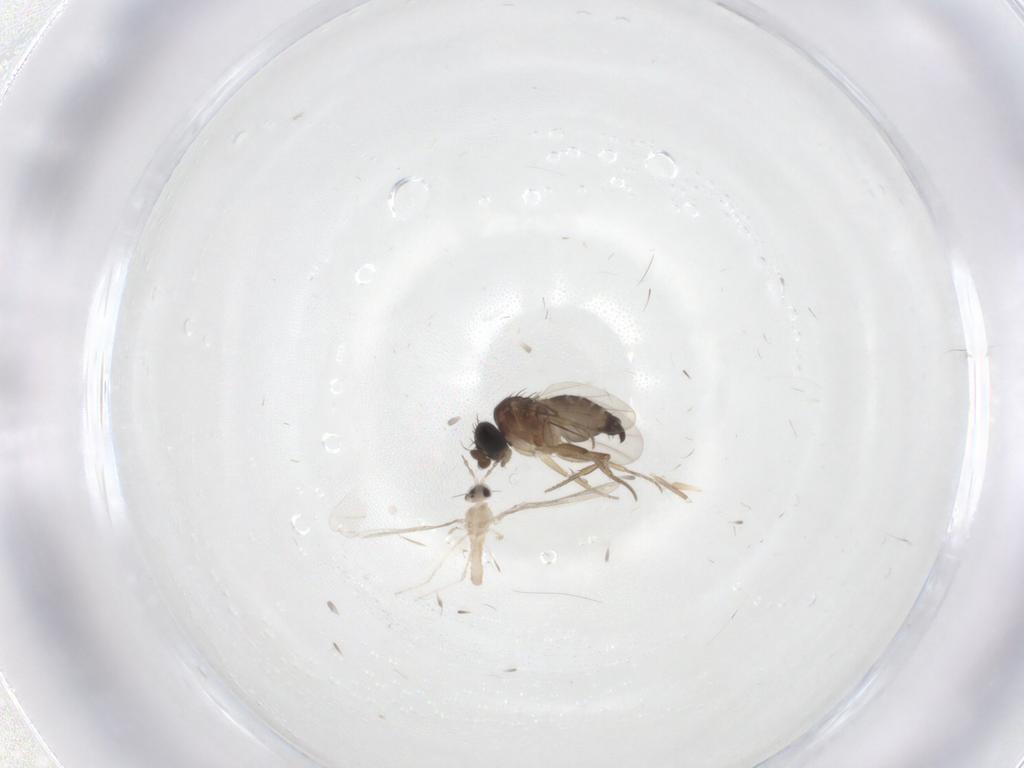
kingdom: Animalia
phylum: Arthropoda
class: Insecta
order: Diptera
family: Cecidomyiidae
